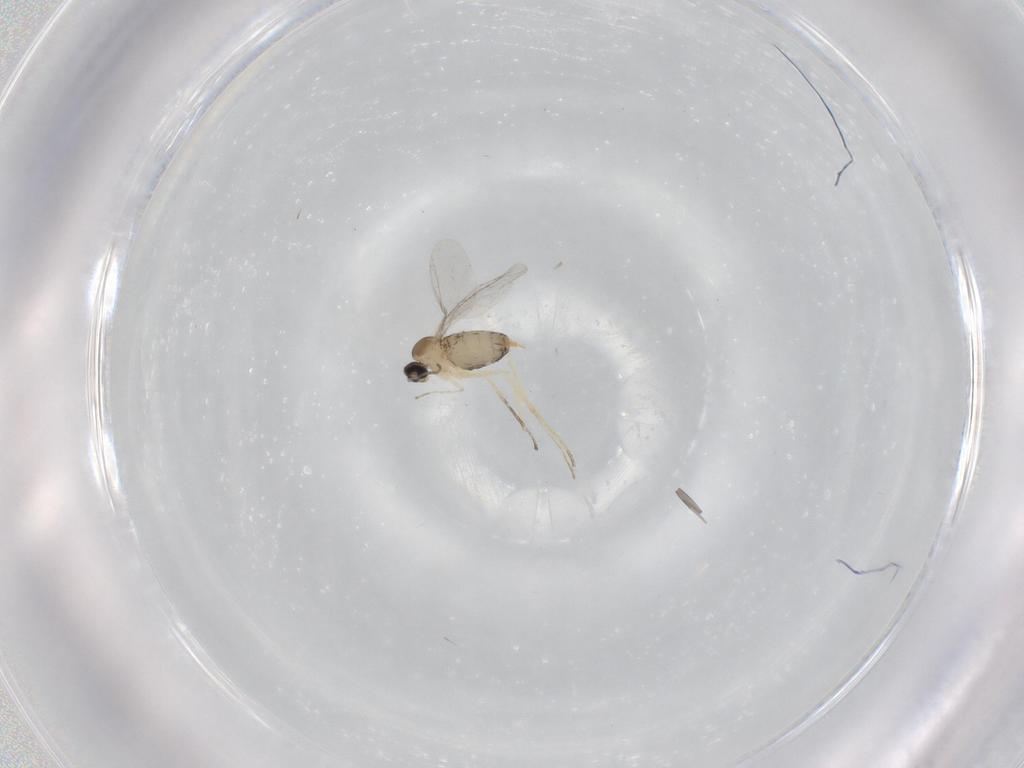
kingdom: Animalia
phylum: Arthropoda
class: Insecta
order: Diptera
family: Cecidomyiidae
